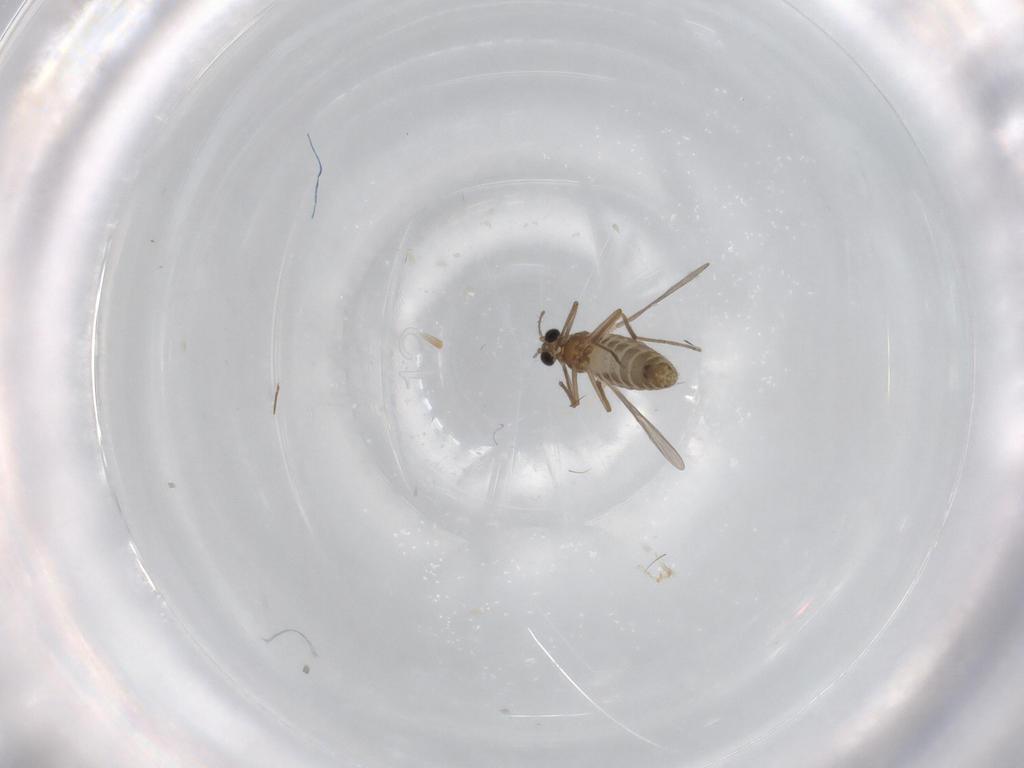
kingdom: Animalia
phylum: Arthropoda
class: Insecta
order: Diptera
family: Chironomidae
